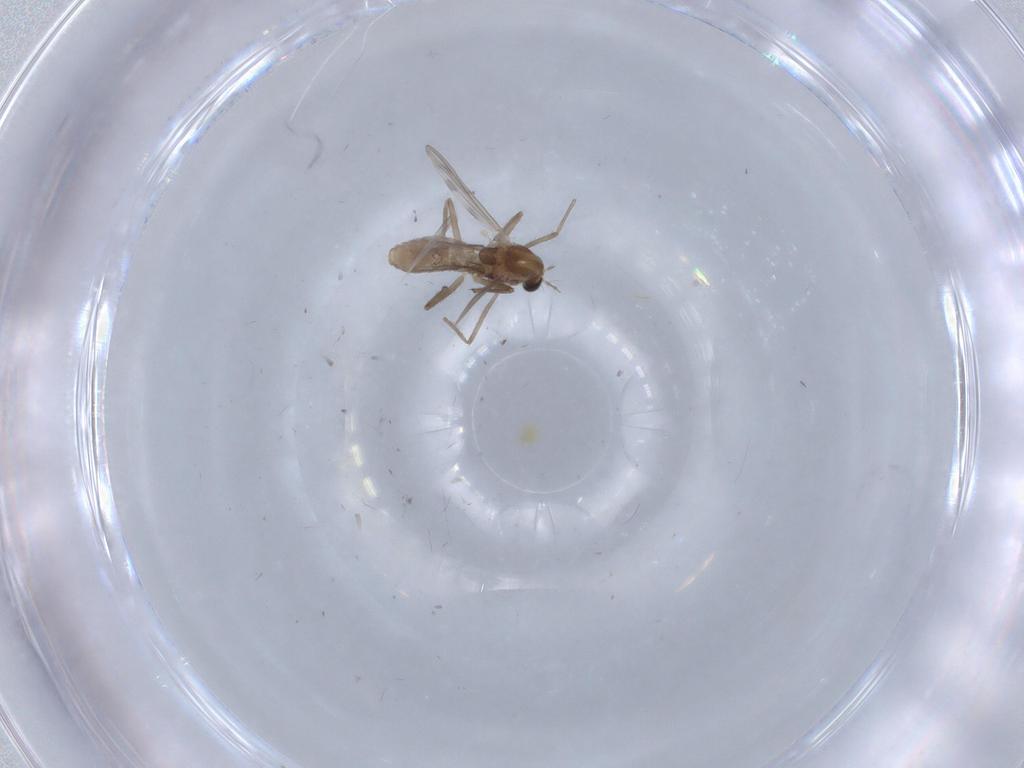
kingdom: Animalia
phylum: Arthropoda
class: Insecta
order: Diptera
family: Chironomidae
